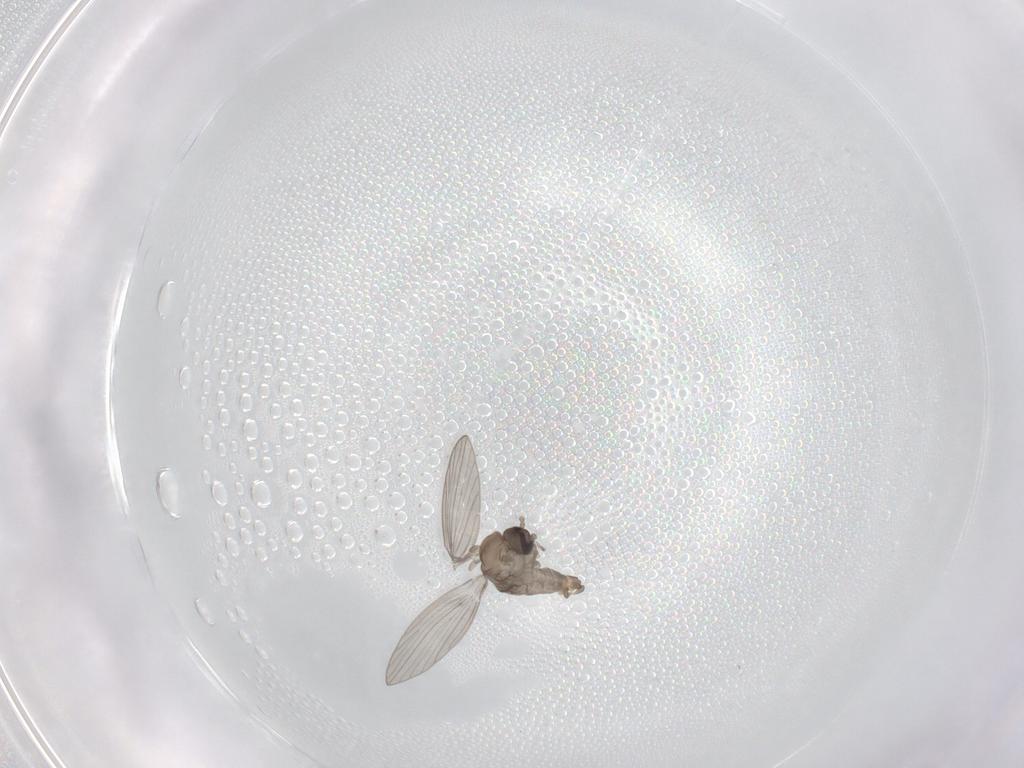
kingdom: Animalia
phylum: Arthropoda
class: Insecta
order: Diptera
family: Psychodidae
